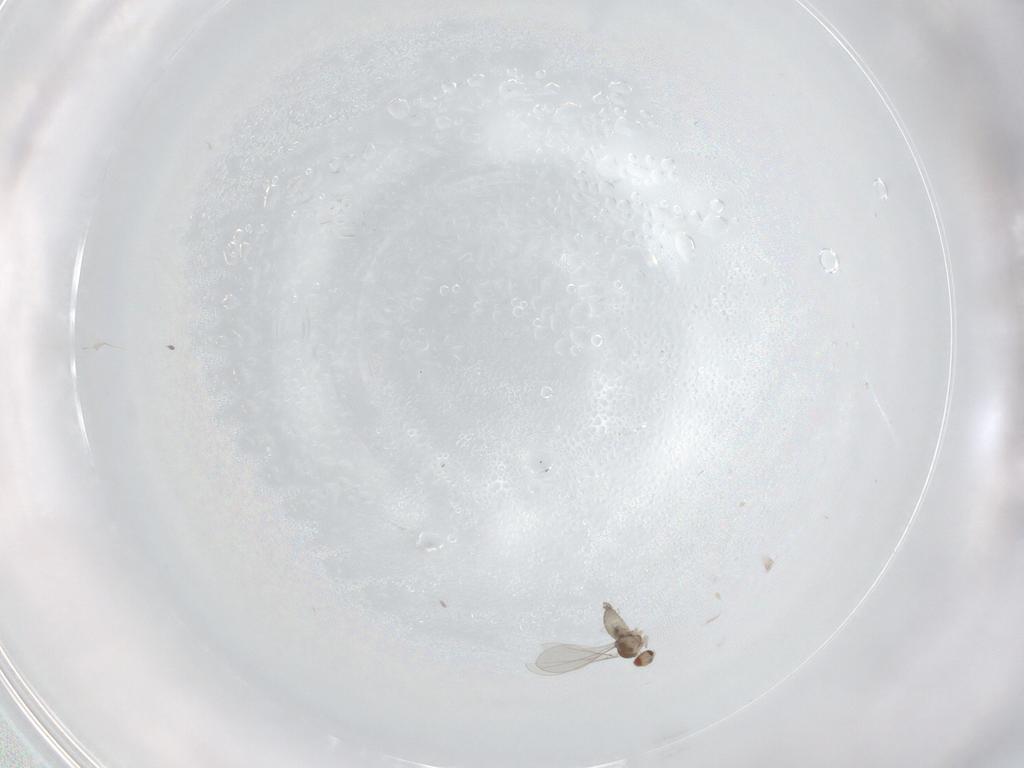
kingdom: Animalia
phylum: Arthropoda
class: Insecta
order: Diptera
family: Cecidomyiidae
